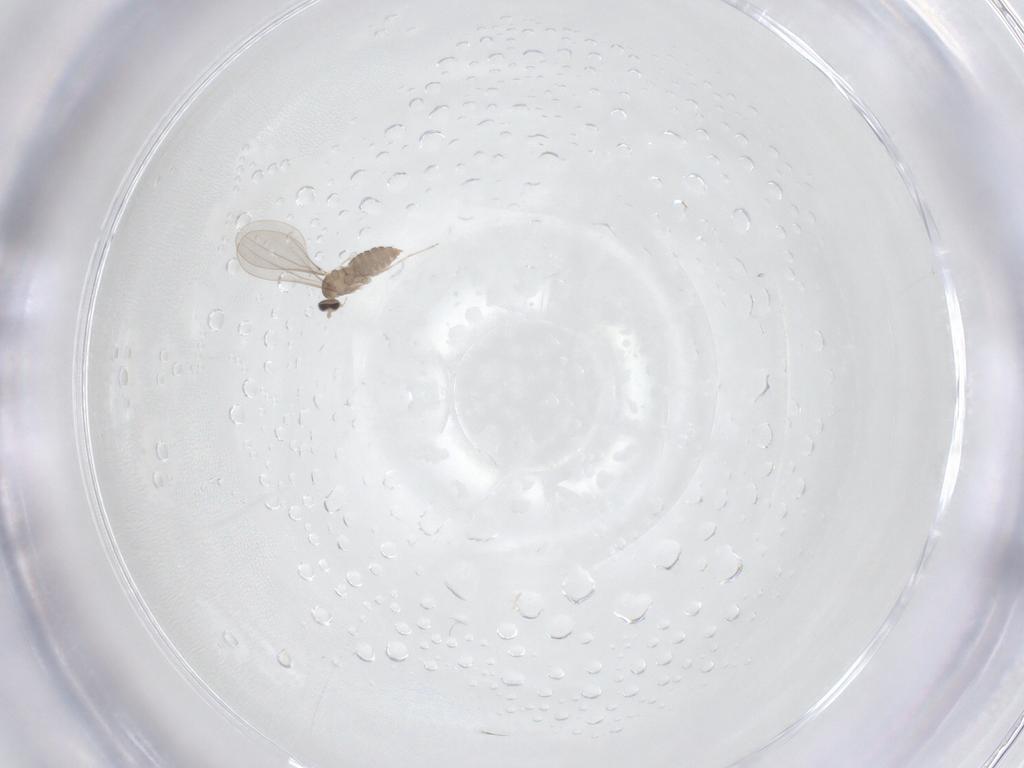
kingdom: Animalia
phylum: Arthropoda
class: Insecta
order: Diptera
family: Cecidomyiidae
